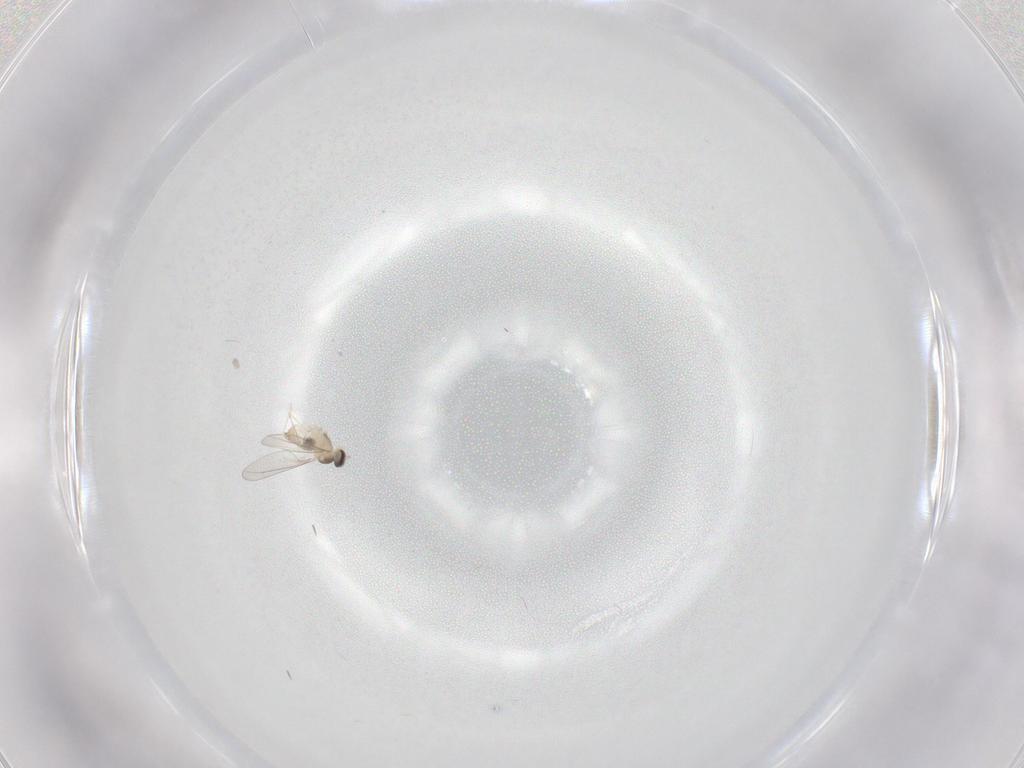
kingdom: Animalia
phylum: Arthropoda
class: Insecta
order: Diptera
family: Cecidomyiidae
